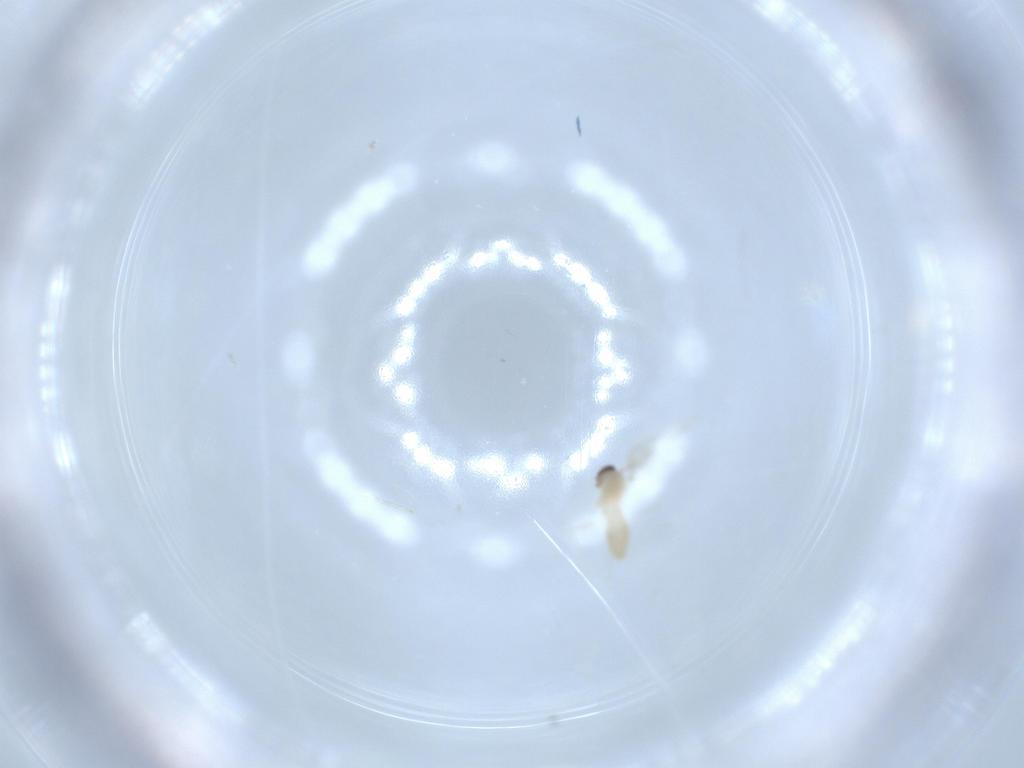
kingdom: Animalia
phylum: Arthropoda
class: Insecta
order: Diptera
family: Cecidomyiidae
